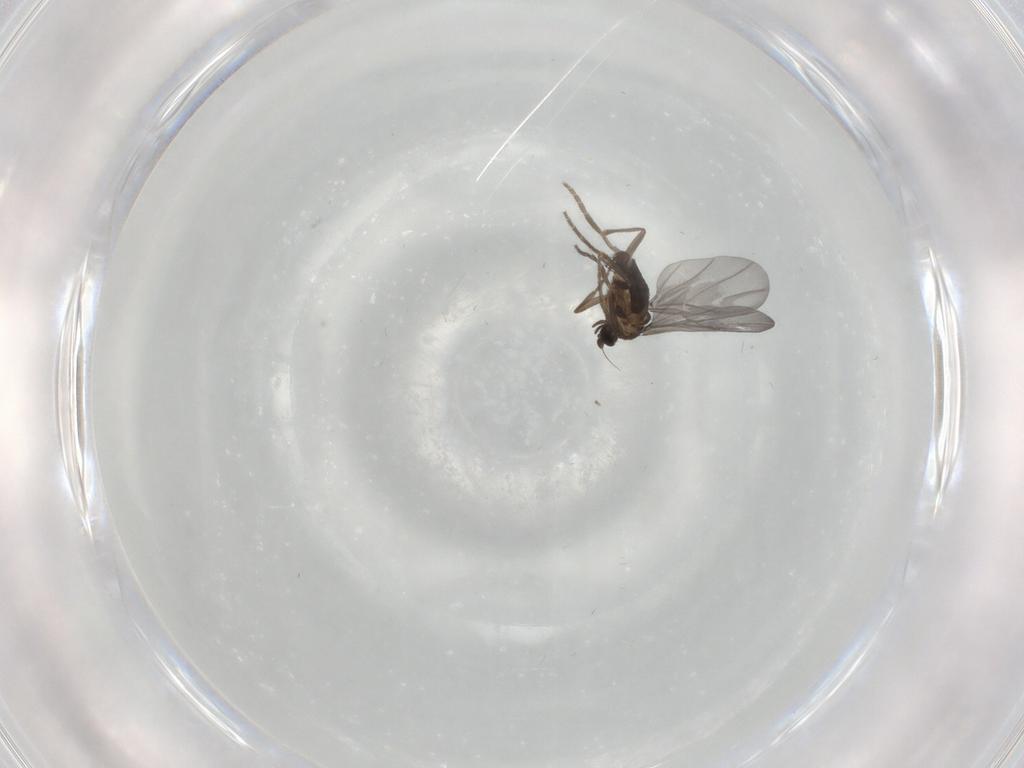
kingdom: Animalia
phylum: Arthropoda
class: Insecta
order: Diptera
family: Phoridae
